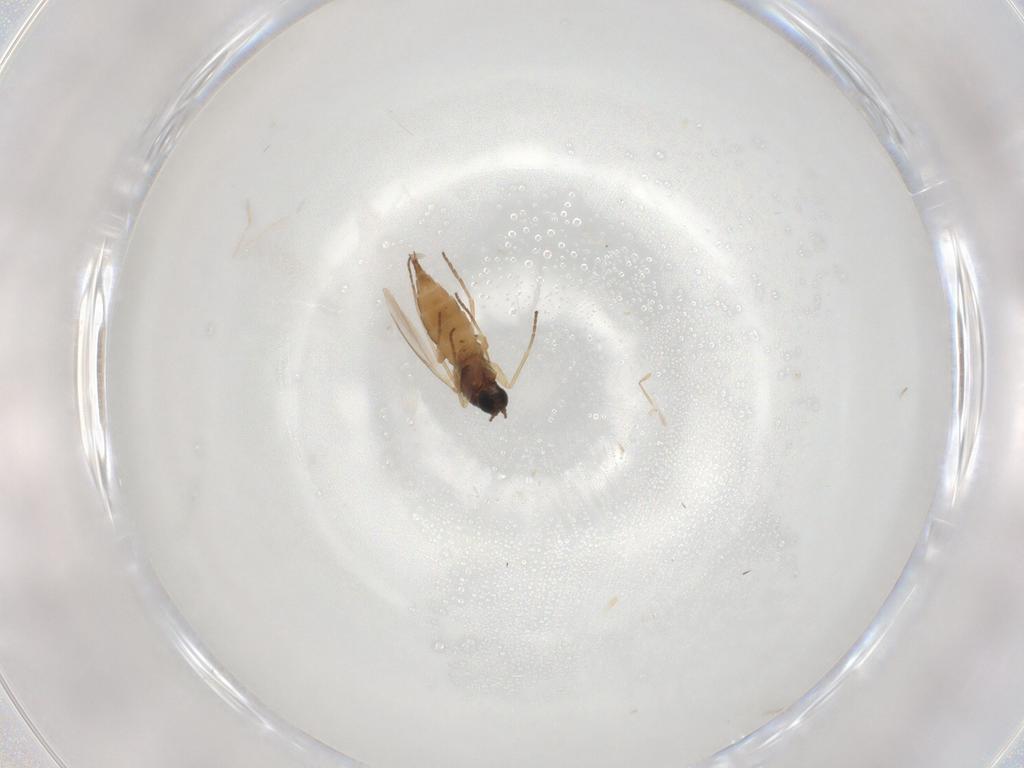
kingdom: Animalia
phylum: Arthropoda
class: Insecta
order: Diptera
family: Sciaridae
